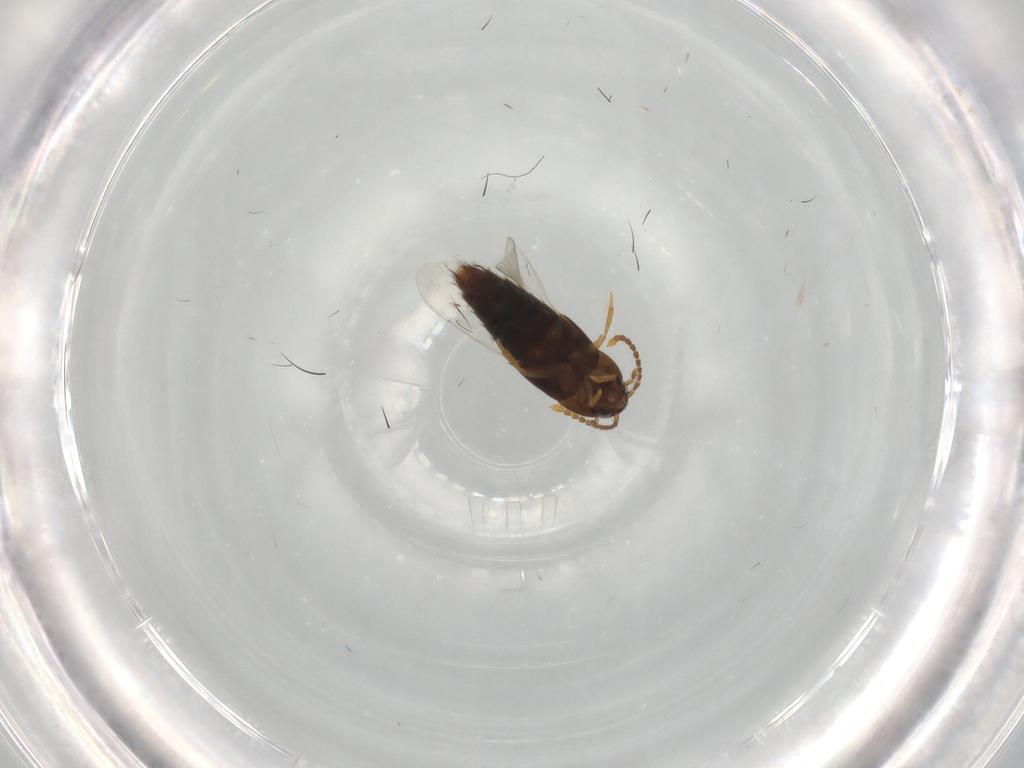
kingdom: Animalia
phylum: Arthropoda
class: Insecta
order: Coleoptera
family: Staphylinidae
